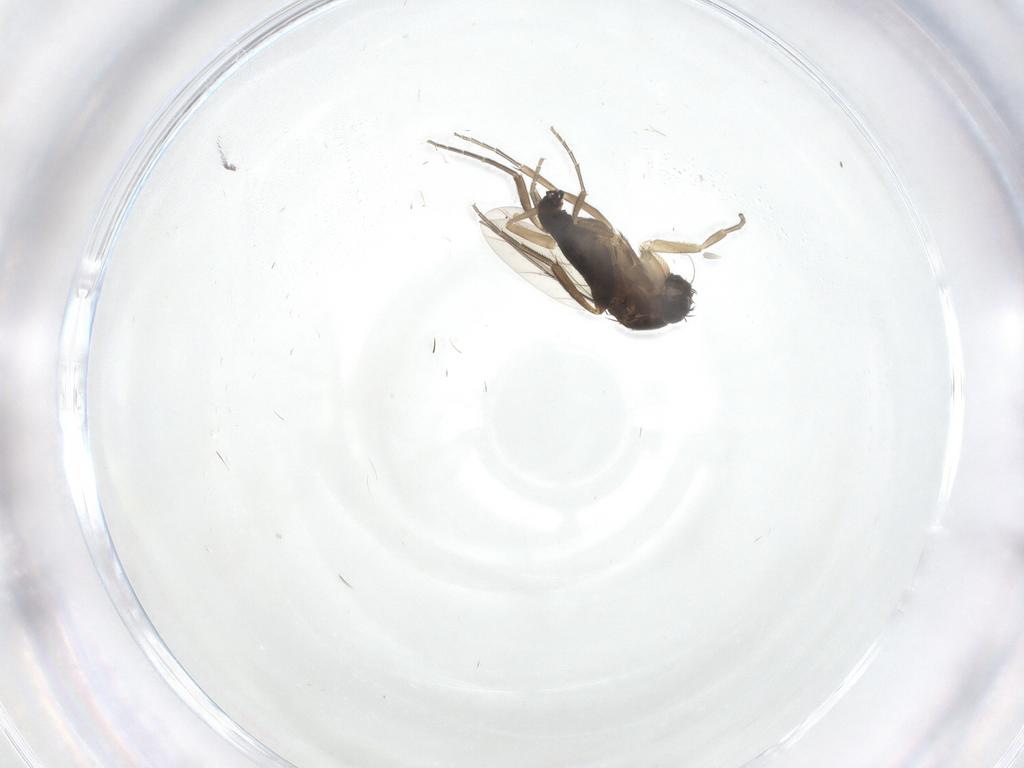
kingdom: Animalia
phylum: Arthropoda
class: Insecta
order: Diptera
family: Phoridae
